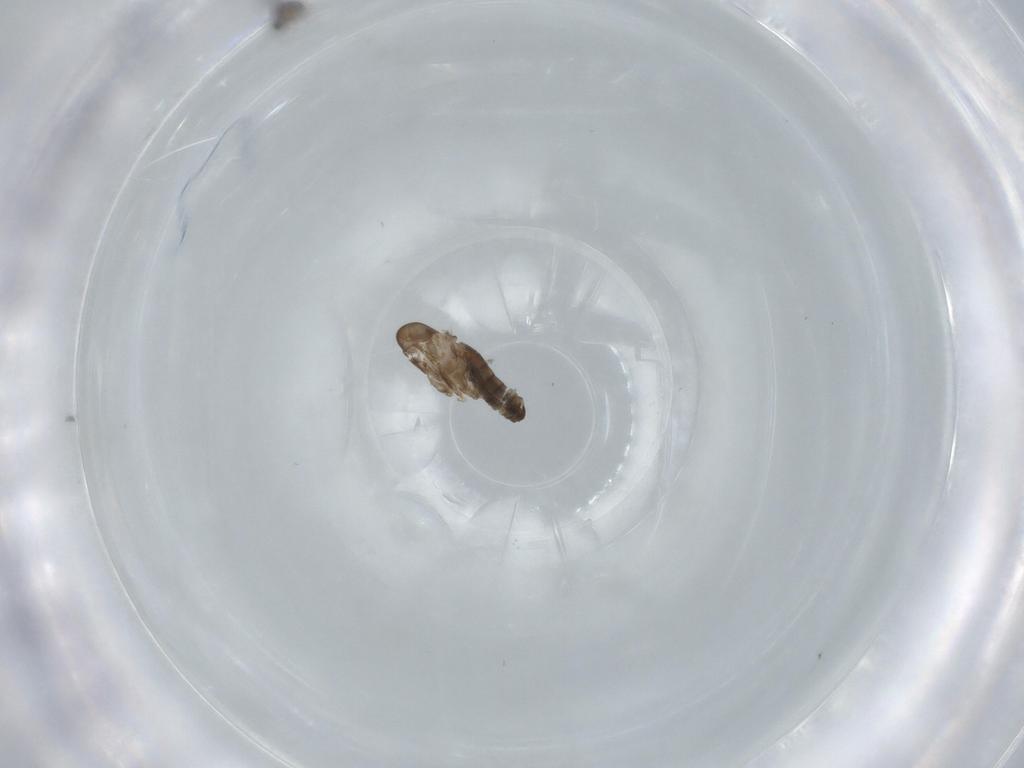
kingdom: Animalia
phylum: Arthropoda
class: Insecta
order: Diptera
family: Psychodidae
